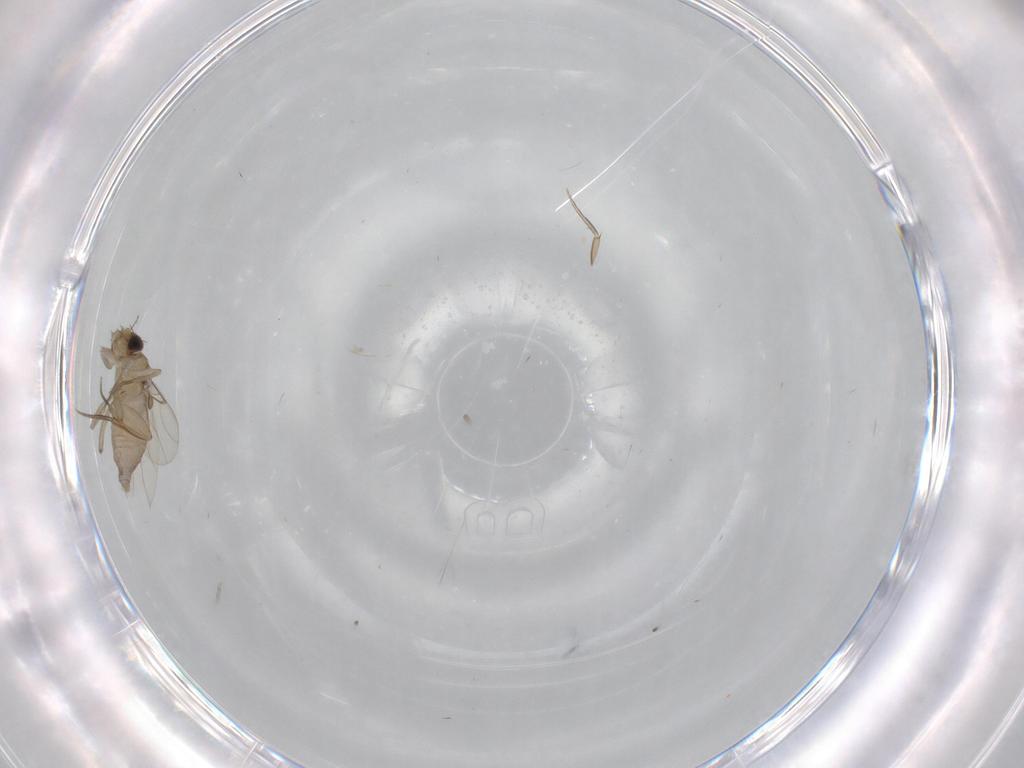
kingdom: Animalia
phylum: Arthropoda
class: Insecta
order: Diptera
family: Phoridae
